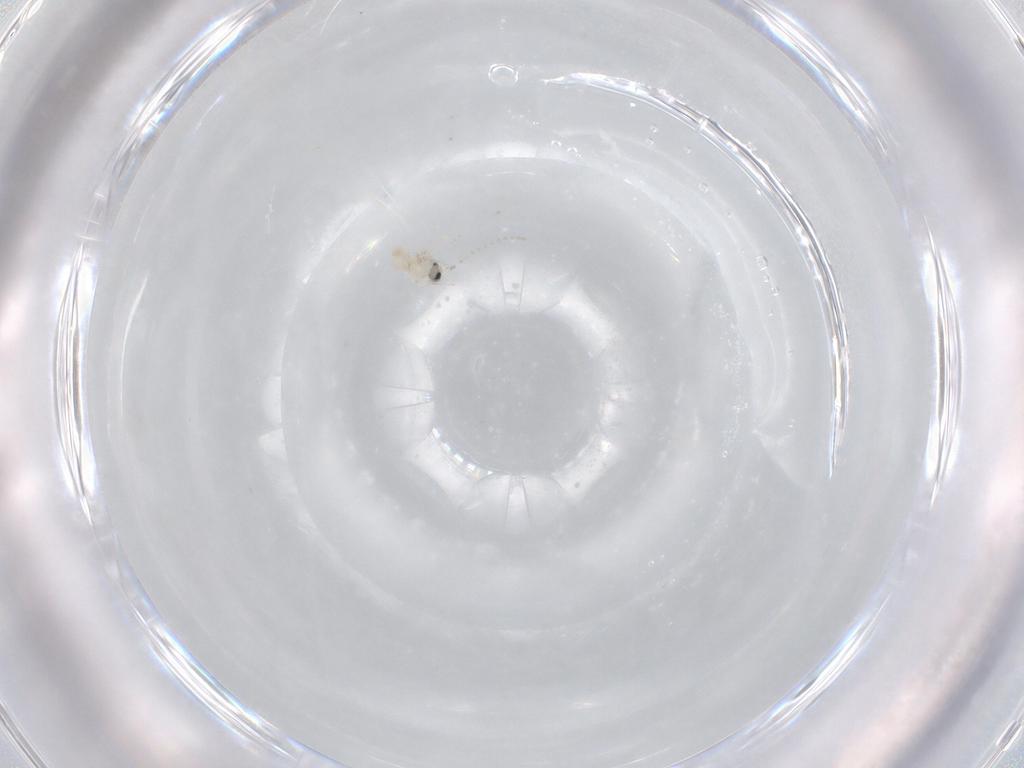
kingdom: Animalia
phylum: Arthropoda
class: Insecta
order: Diptera
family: Cecidomyiidae
